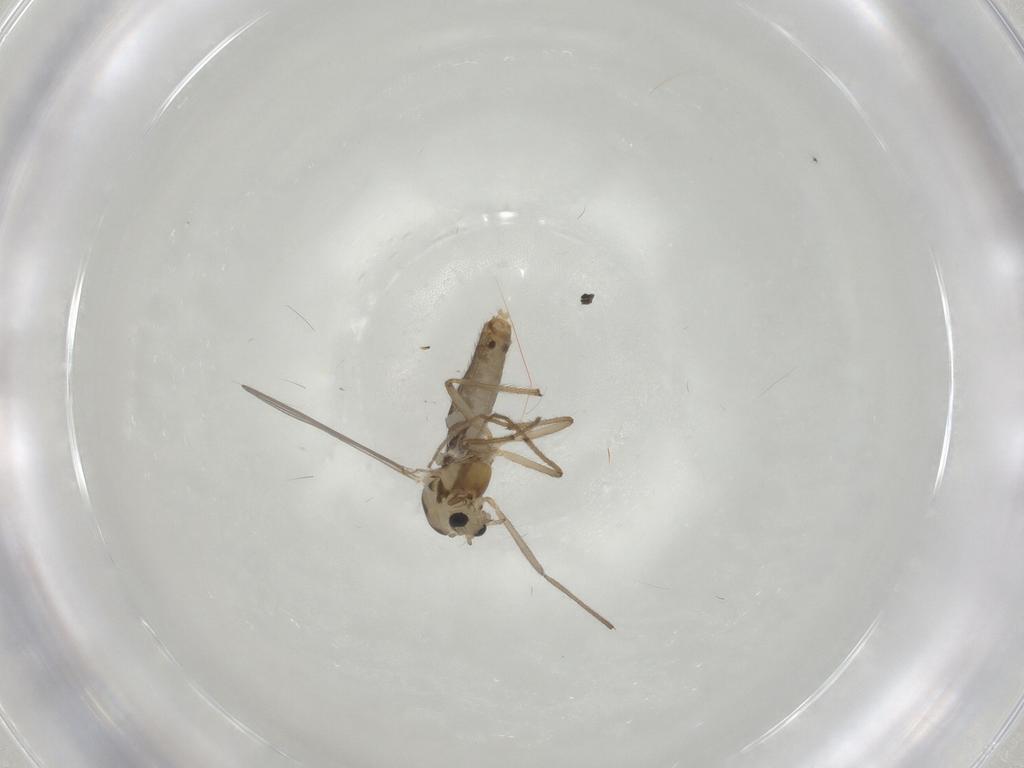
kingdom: Animalia
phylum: Arthropoda
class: Insecta
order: Diptera
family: Chironomidae
